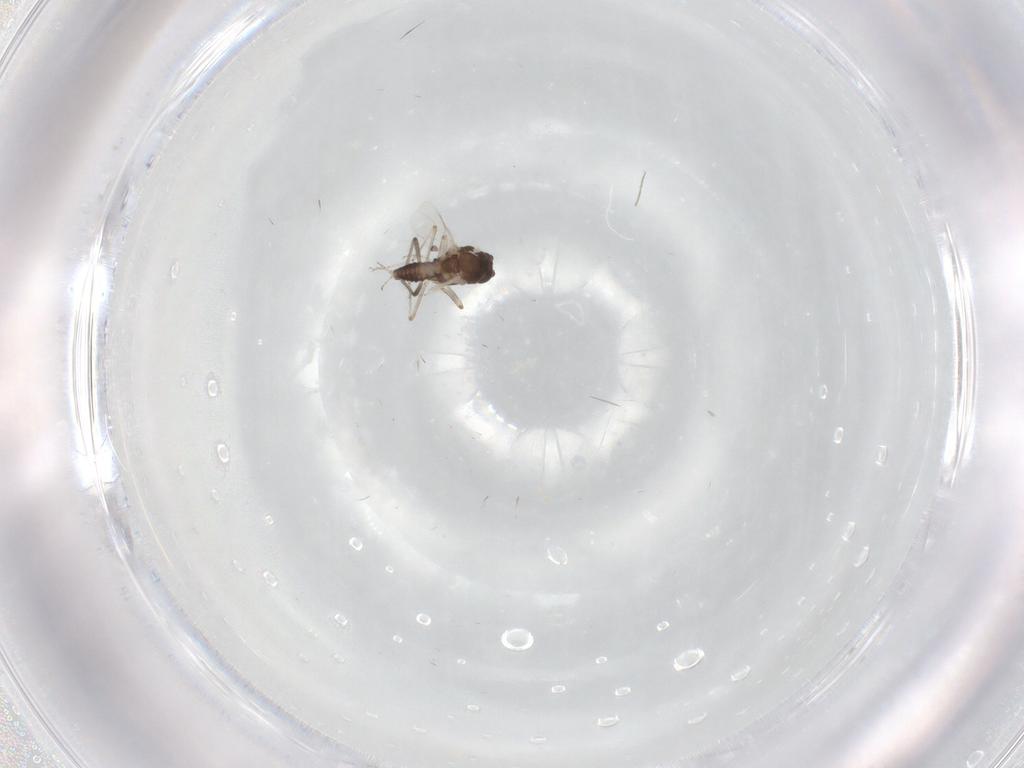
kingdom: Animalia
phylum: Arthropoda
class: Insecta
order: Diptera
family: Ceratopogonidae
